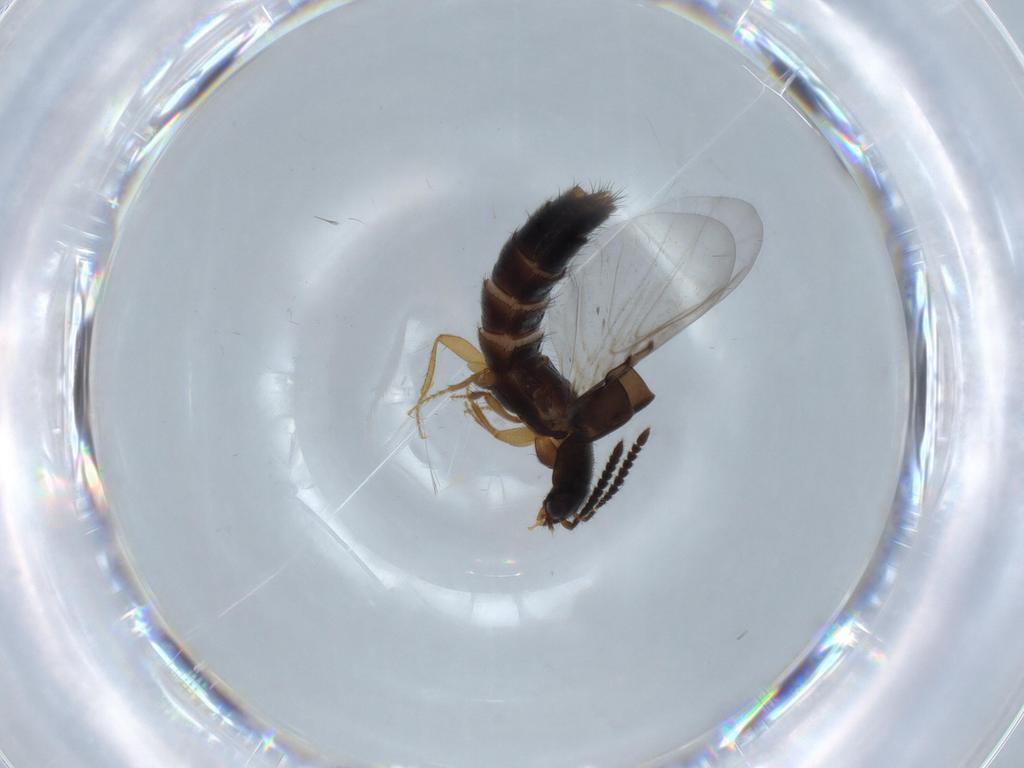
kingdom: Animalia
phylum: Arthropoda
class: Insecta
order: Coleoptera
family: Staphylinidae
